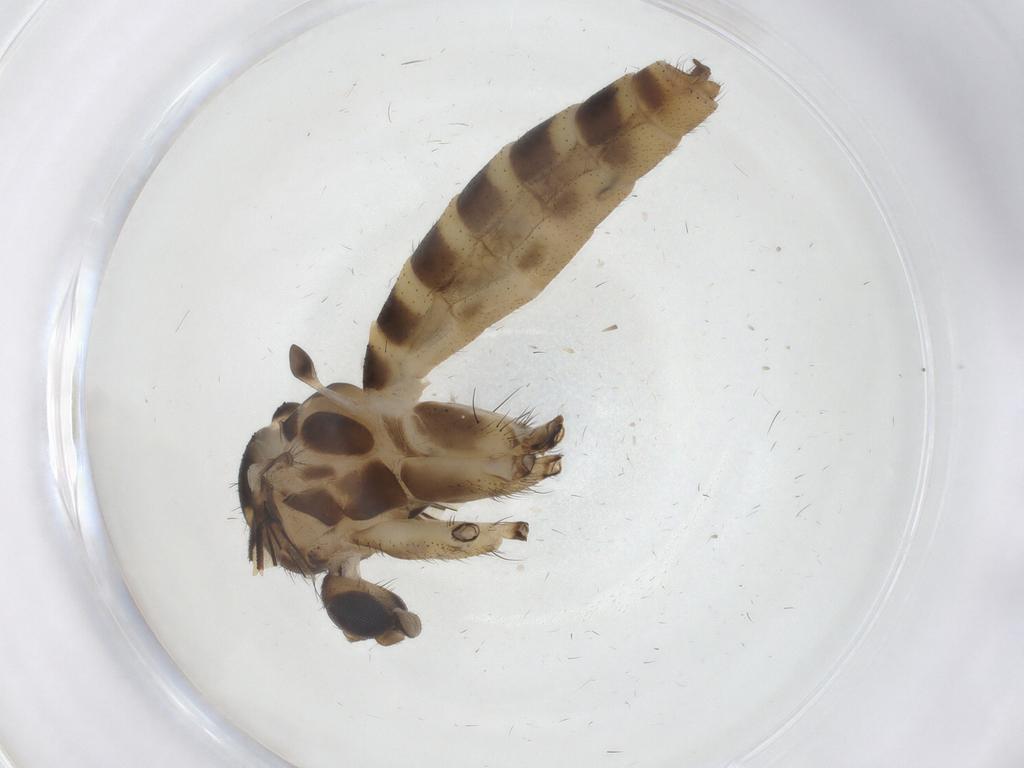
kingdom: Animalia
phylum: Arthropoda
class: Insecta
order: Diptera
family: Mycetophilidae
